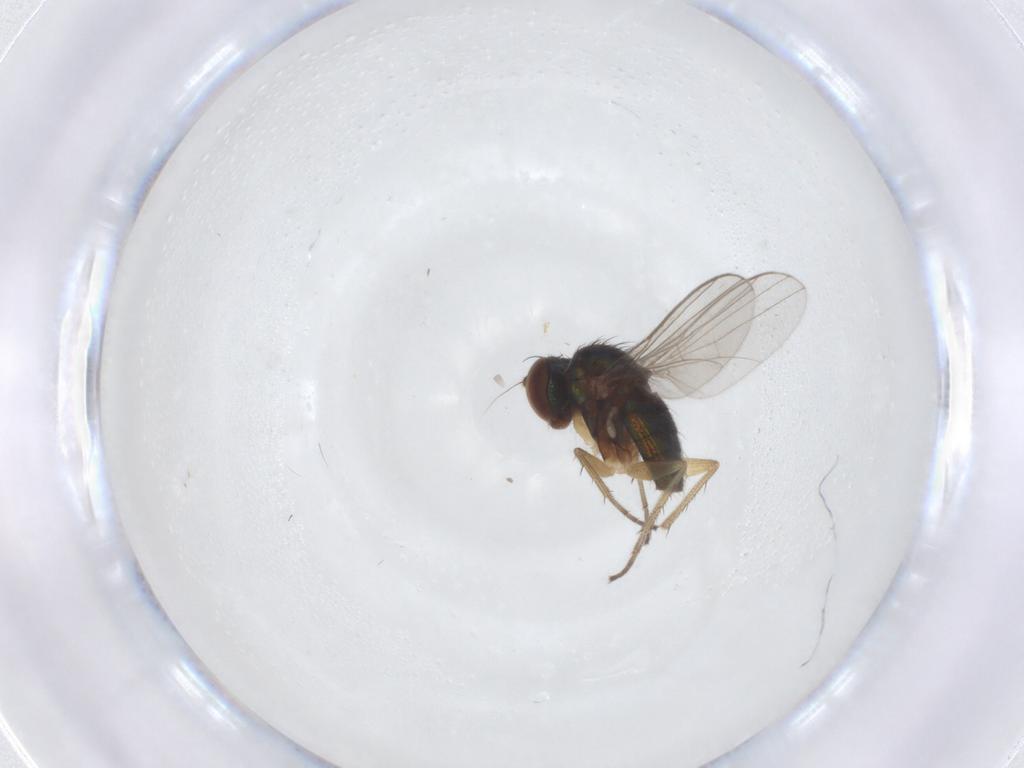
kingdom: Animalia
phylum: Arthropoda
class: Insecta
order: Diptera
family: Dolichopodidae
